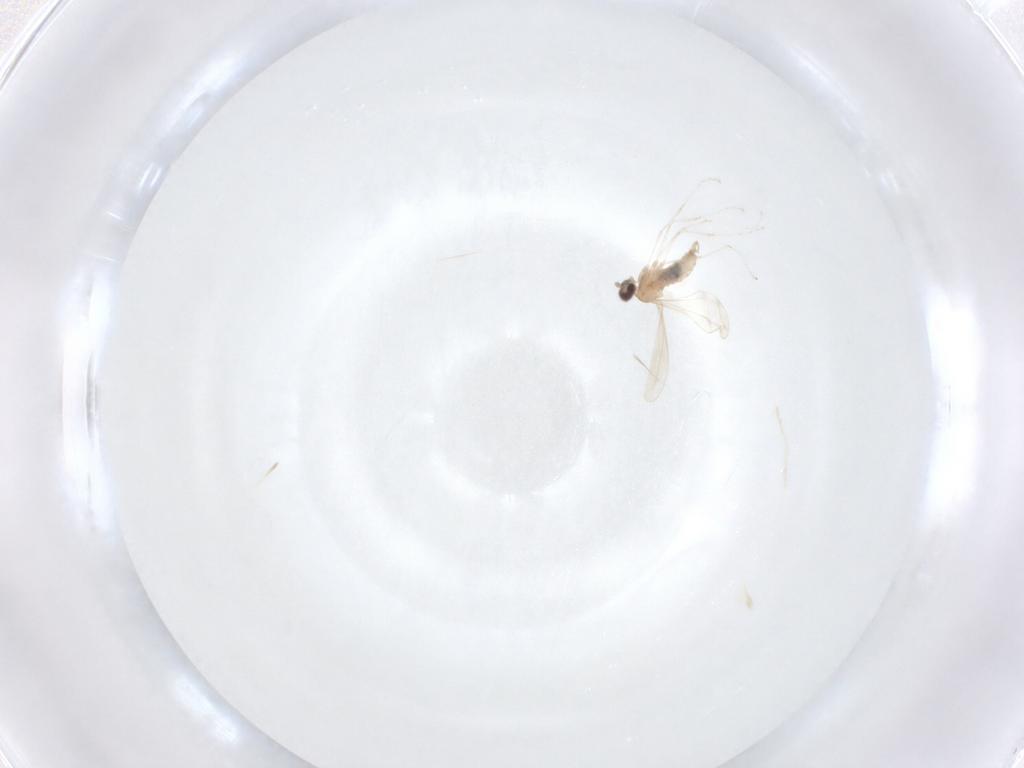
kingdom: Animalia
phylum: Arthropoda
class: Insecta
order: Diptera
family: Cecidomyiidae
